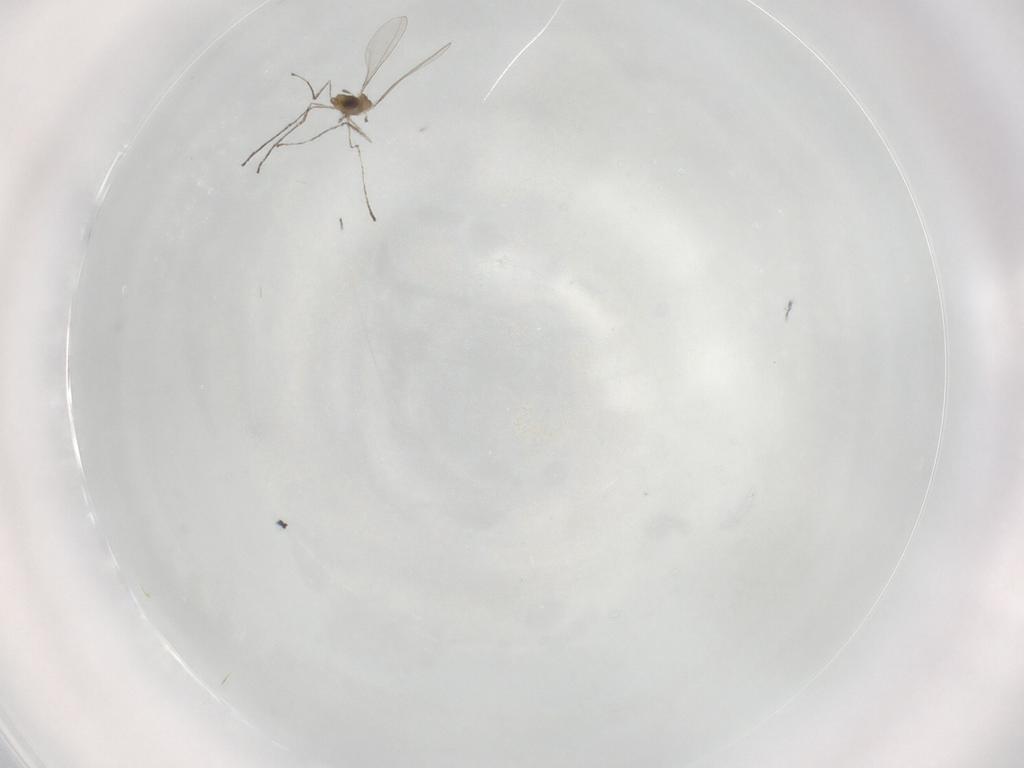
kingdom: Animalia
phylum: Arthropoda
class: Insecta
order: Diptera
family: Cecidomyiidae
